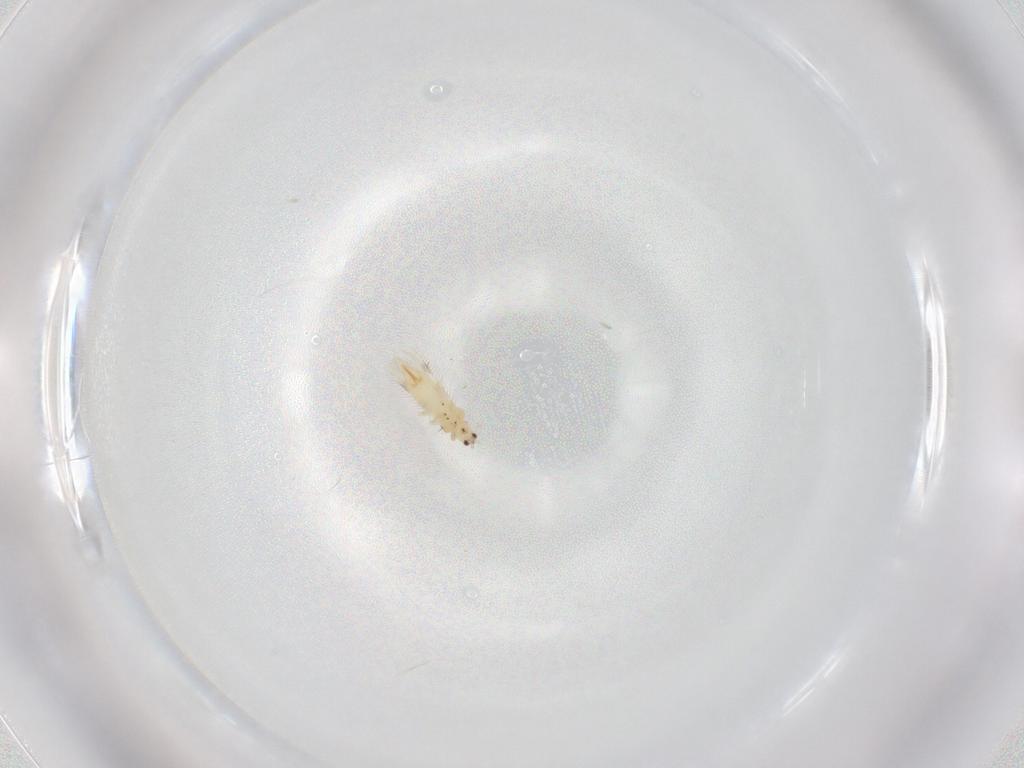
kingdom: Animalia
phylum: Arthropoda
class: Insecta
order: Thysanoptera
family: Thripidae
